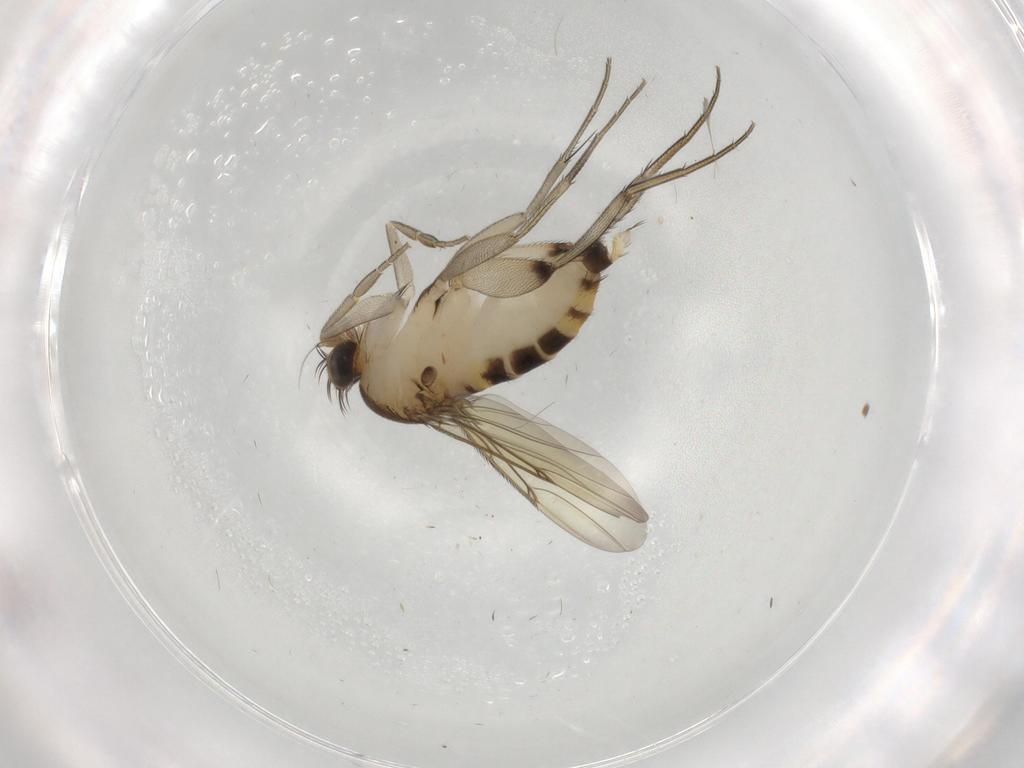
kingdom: Animalia
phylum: Arthropoda
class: Insecta
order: Diptera
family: Phoridae
